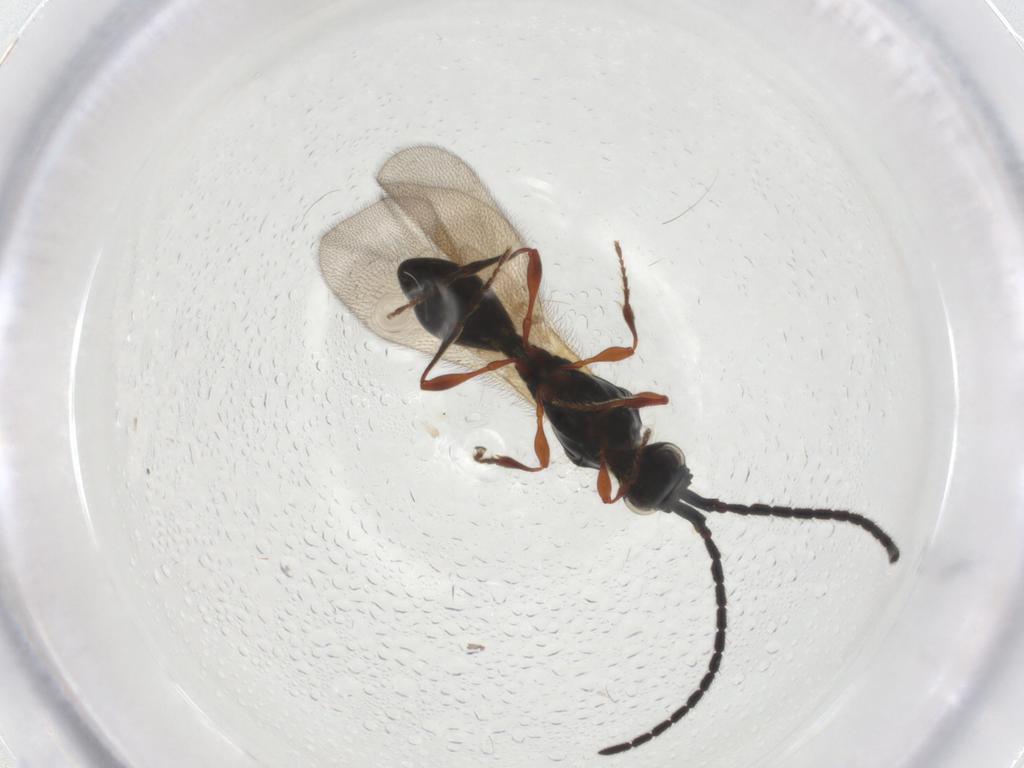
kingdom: Animalia
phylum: Arthropoda
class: Insecta
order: Hymenoptera
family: Diapriidae
